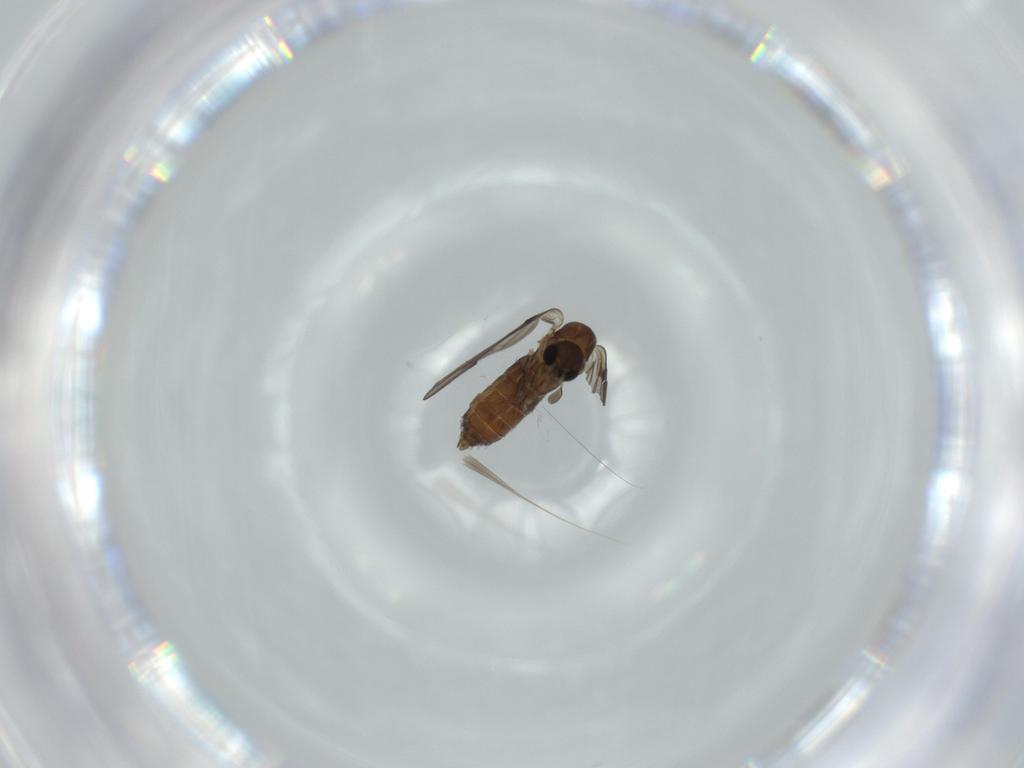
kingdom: Animalia
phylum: Arthropoda
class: Insecta
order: Diptera
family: Psychodidae
